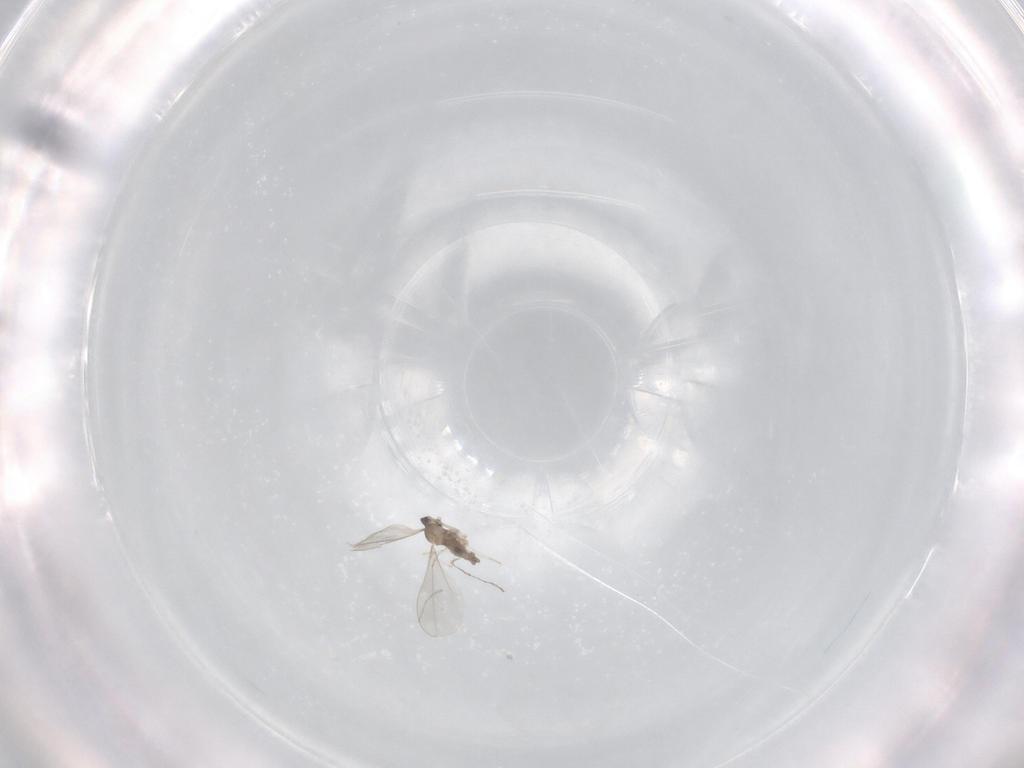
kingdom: Animalia
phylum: Arthropoda
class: Insecta
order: Diptera
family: Cecidomyiidae
